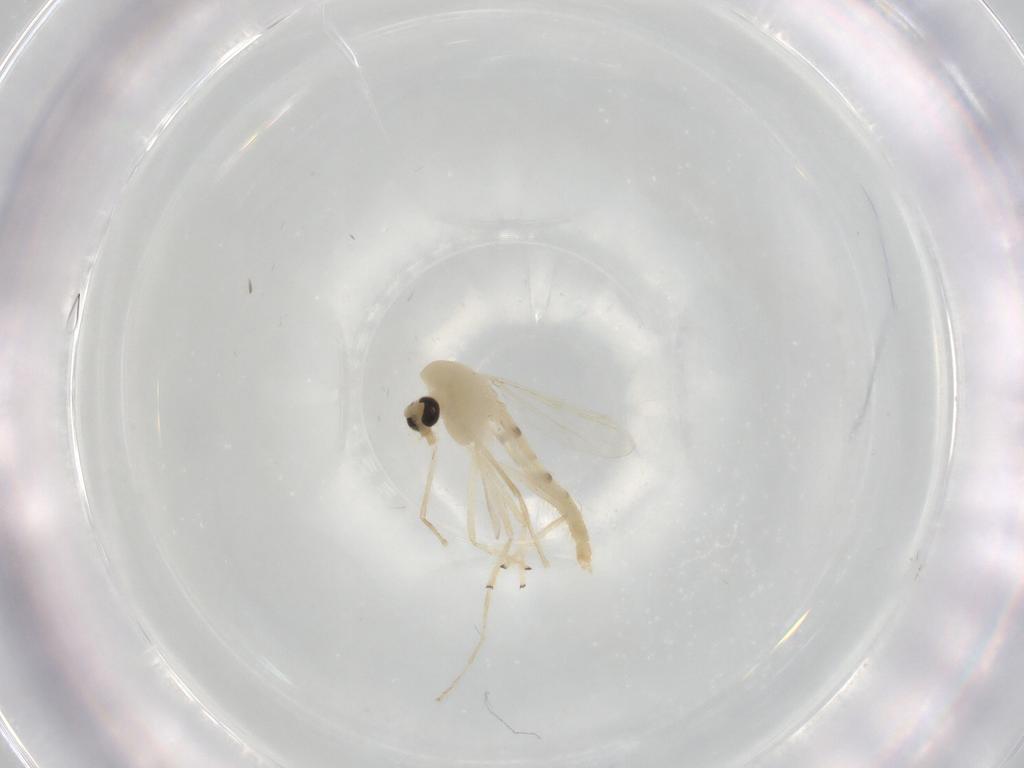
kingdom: Animalia
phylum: Arthropoda
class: Insecta
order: Diptera
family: Chironomidae
